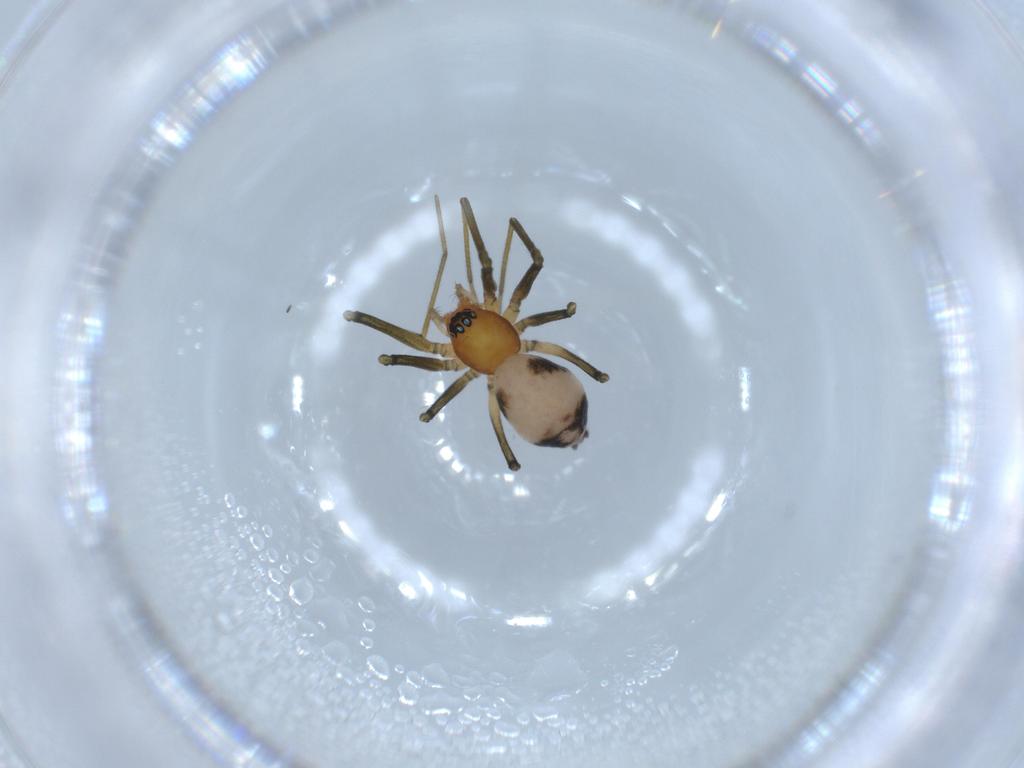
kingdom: Animalia
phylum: Arthropoda
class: Arachnida
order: Araneae
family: Linyphiidae
